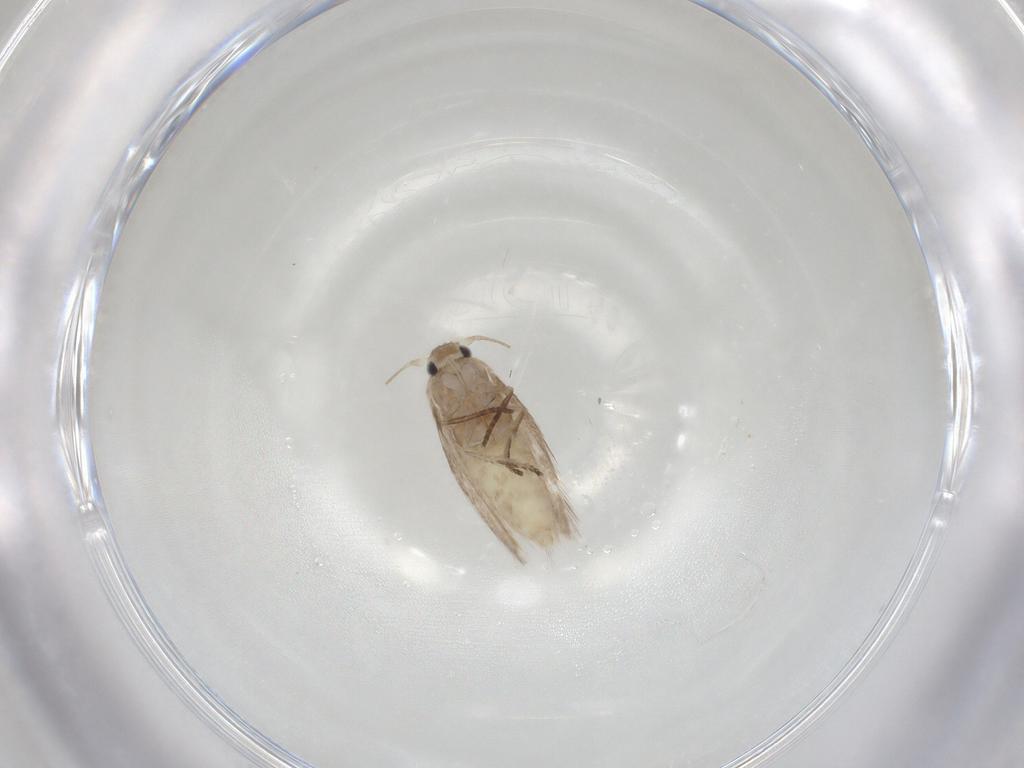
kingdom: Animalia
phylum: Arthropoda
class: Insecta
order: Lepidoptera
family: Depressariidae
